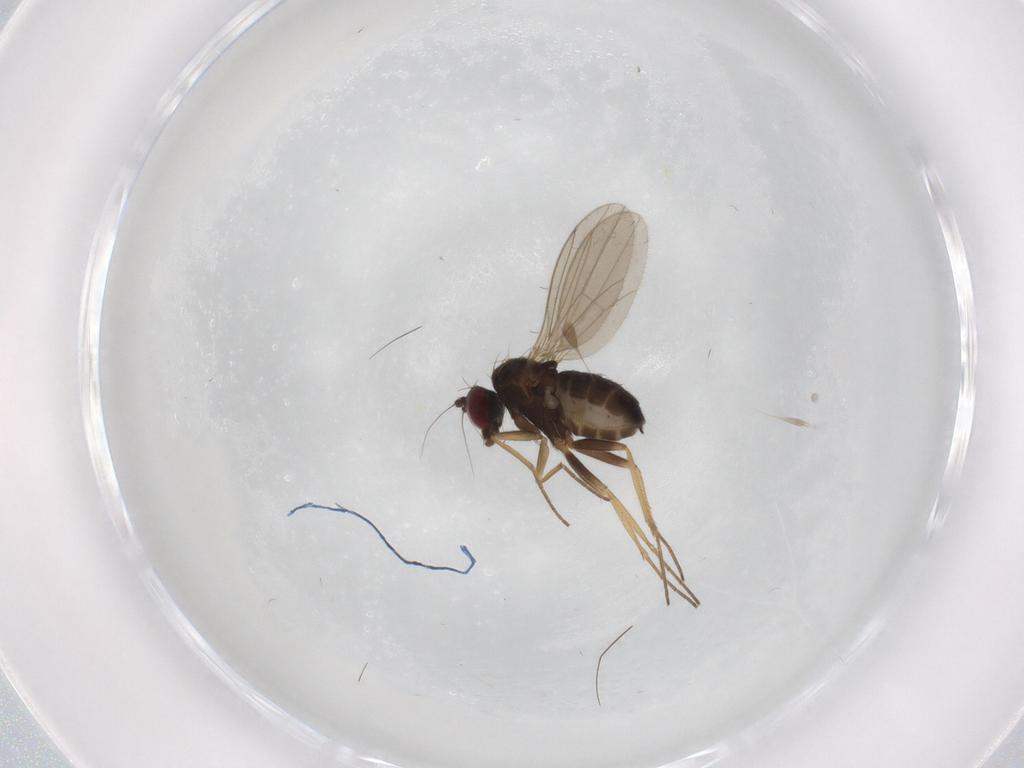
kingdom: Animalia
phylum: Arthropoda
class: Insecta
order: Diptera
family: Dolichopodidae
